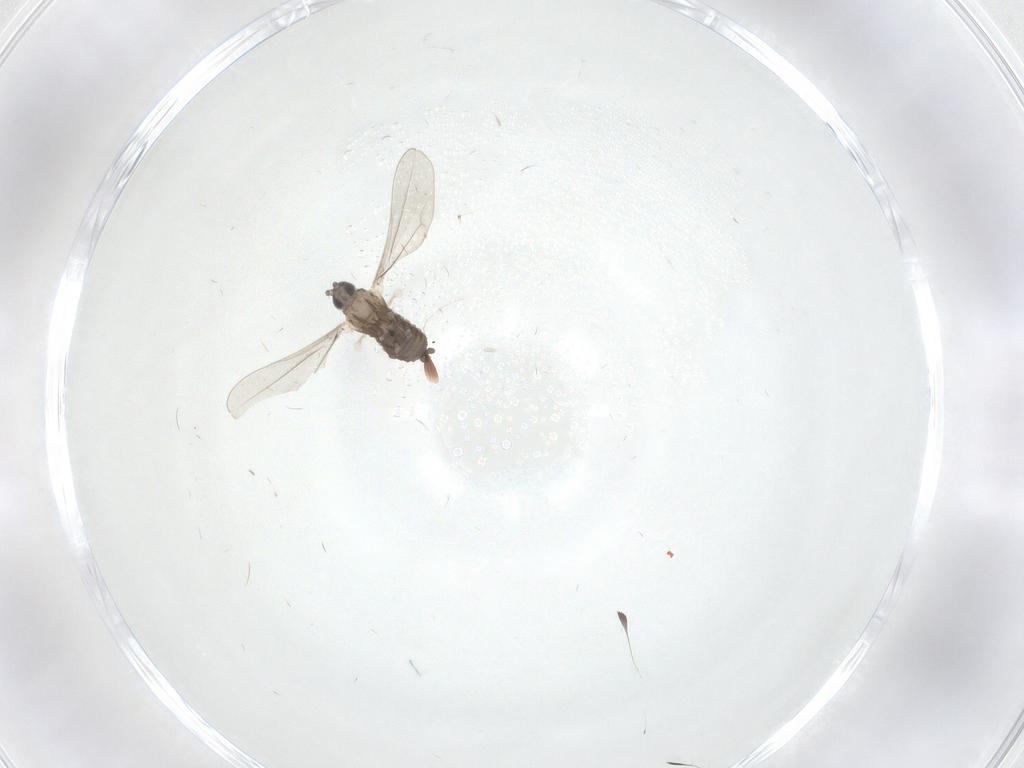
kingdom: Animalia
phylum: Arthropoda
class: Insecta
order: Diptera
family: Cecidomyiidae
